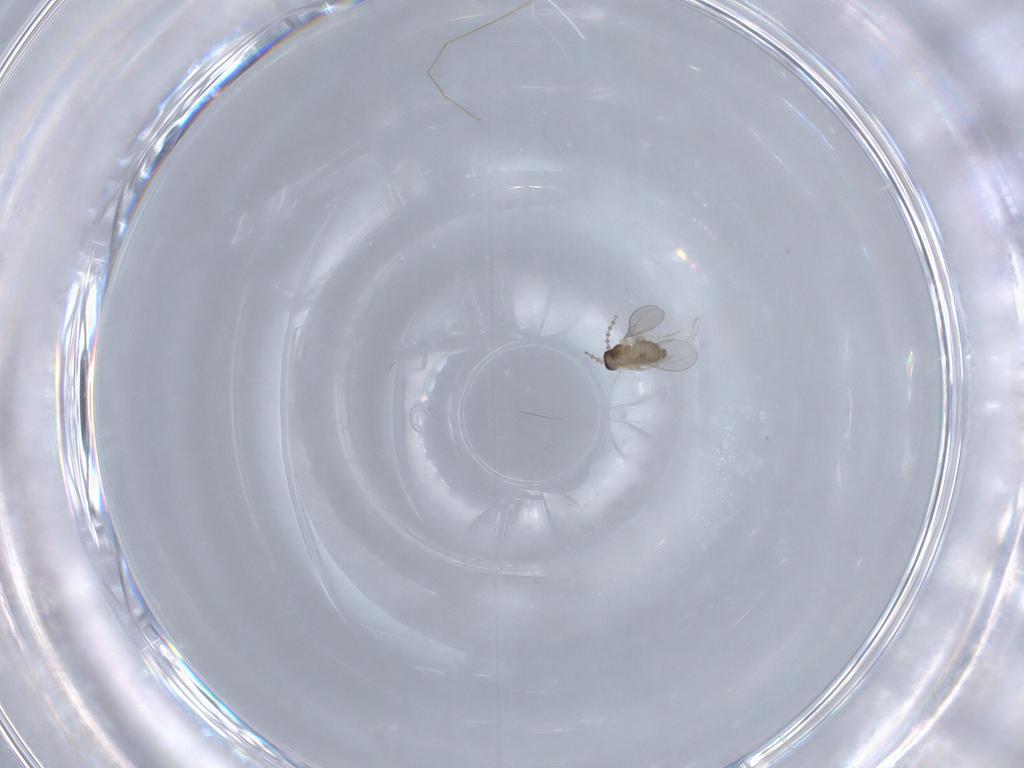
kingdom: Animalia
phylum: Arthropoda
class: Insecta
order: Diptera
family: Cecidomyiidae
